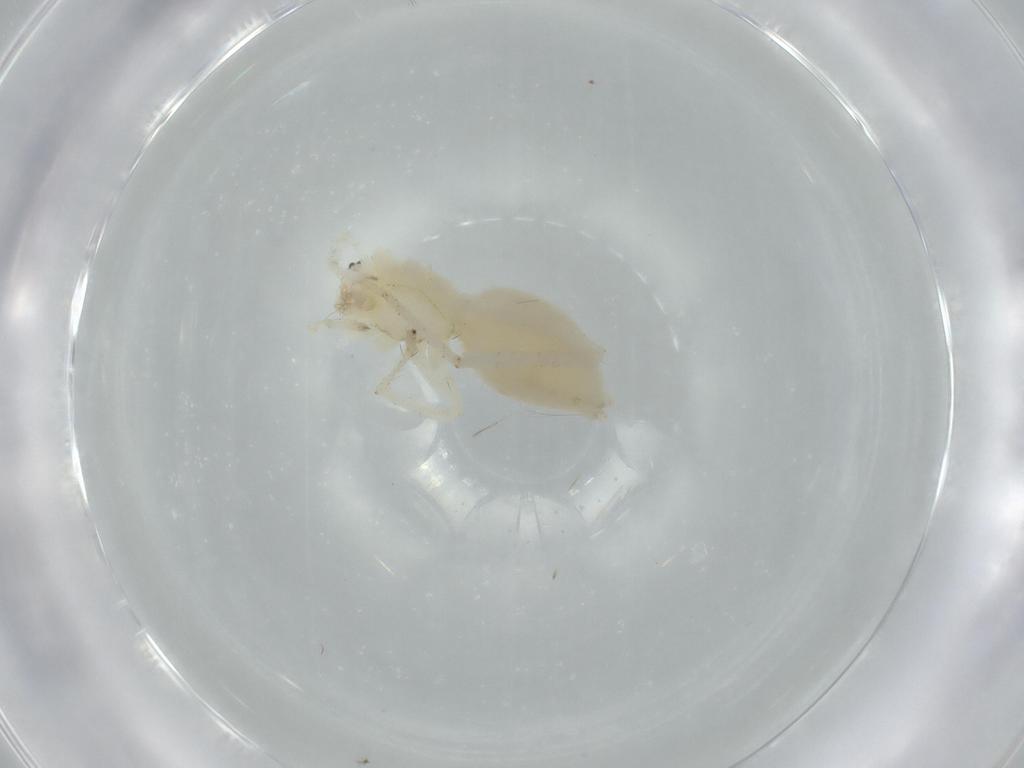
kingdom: Animalia
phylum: Arthropoda
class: Arachnida
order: Araneae
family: Anyphaenidae
